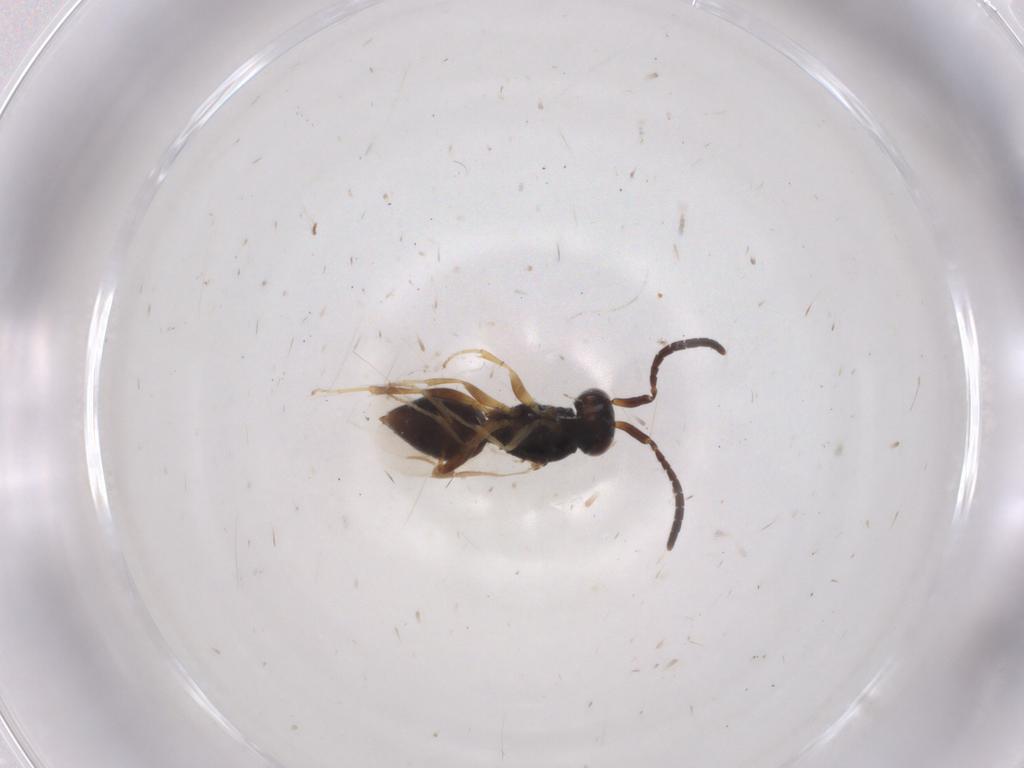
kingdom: Animalia
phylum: Arthropoda
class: Insecta
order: Hymenoptera
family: Megaspilidae
